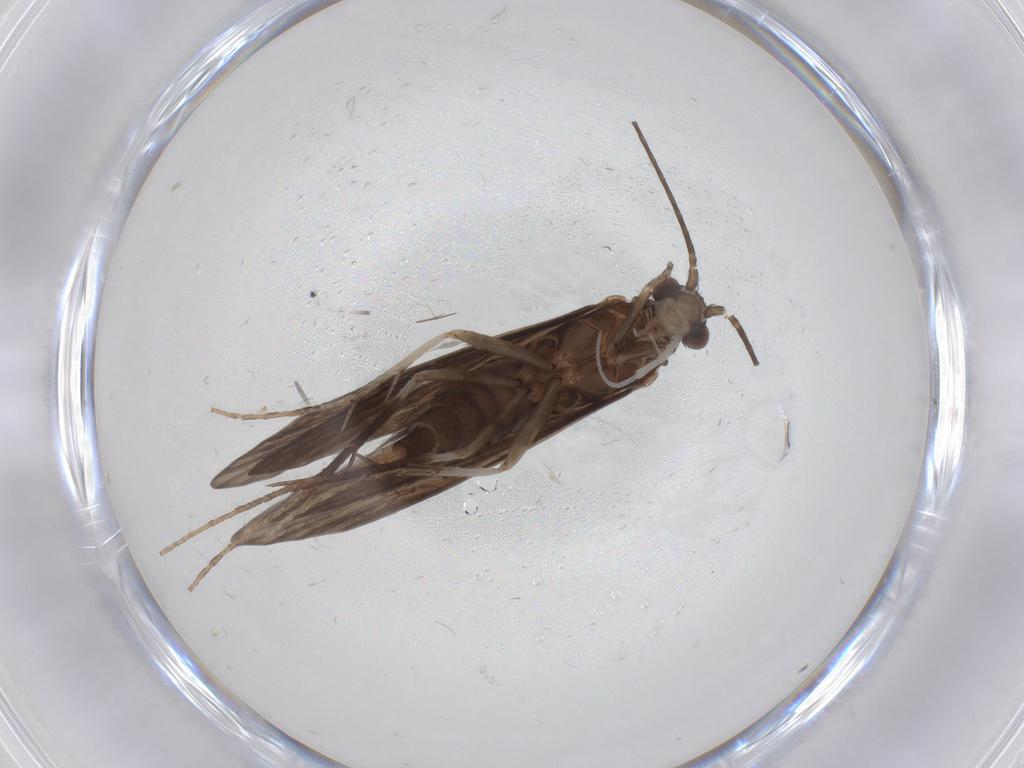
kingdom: Animalia
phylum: Arthropoda
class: Insecta
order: Trichoptera
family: Xiphocentronidae
